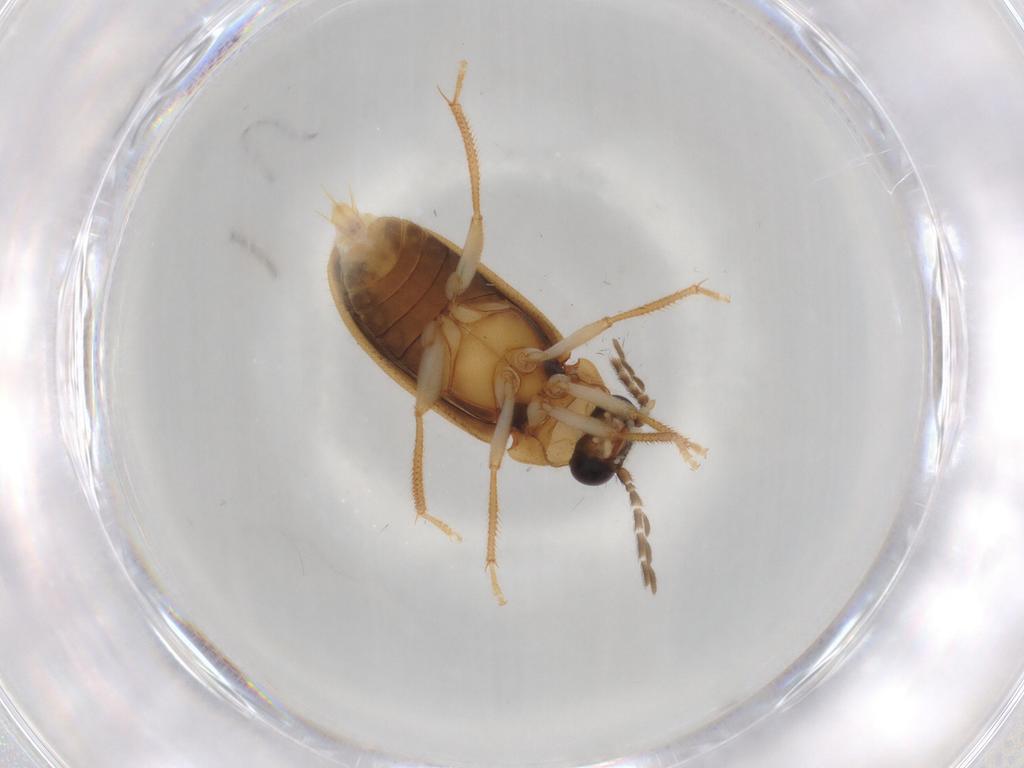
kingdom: Animalia
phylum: Arthropoda
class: Insecta
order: Coleoptera
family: Ptilodactylidae
